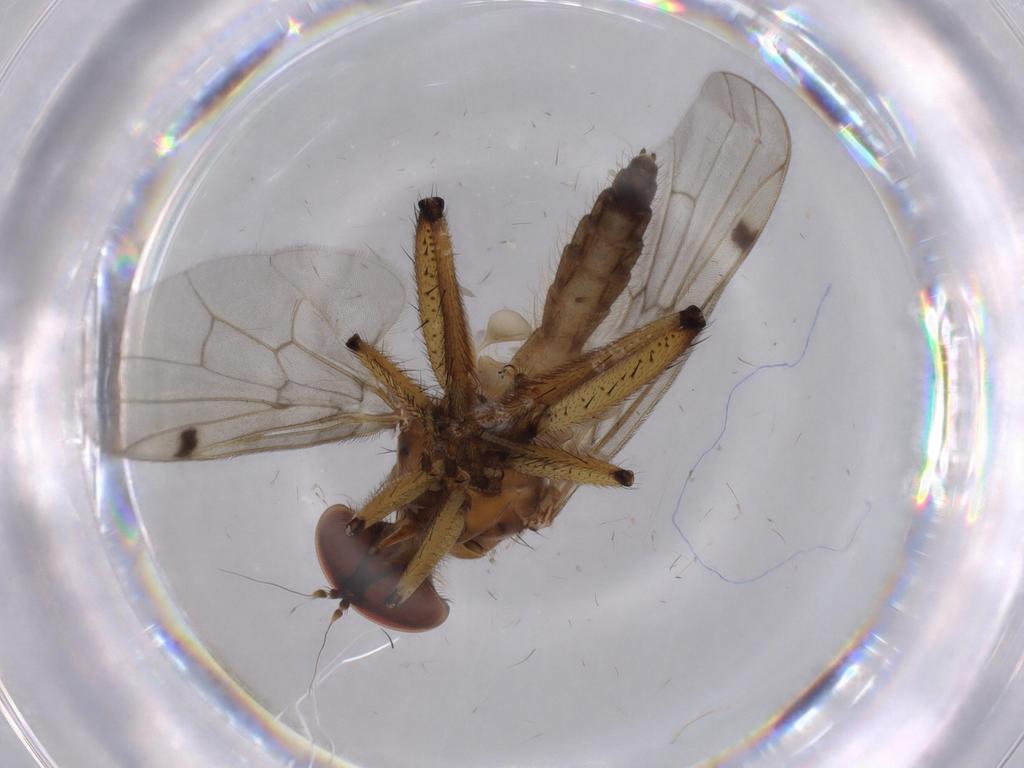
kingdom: Animalia
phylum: Arthropoda
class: Insecta
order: Diptera
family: Hybotidae
